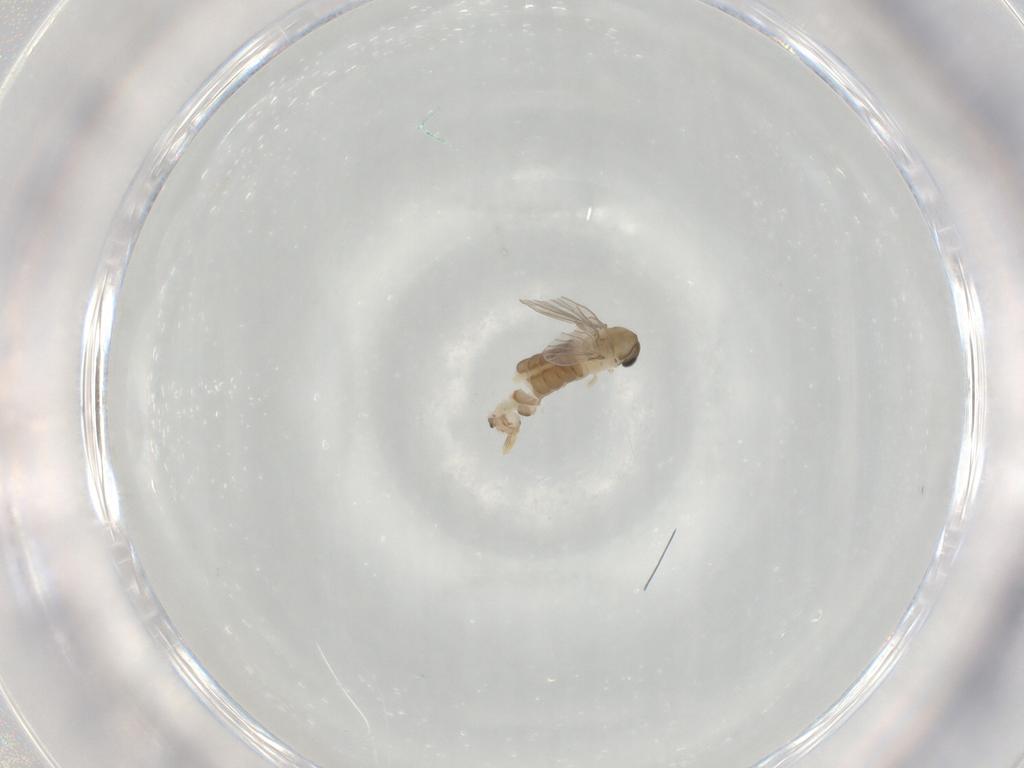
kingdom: Animalia
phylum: Arthropoda
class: Insecta
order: Diptera
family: Psychodidae
